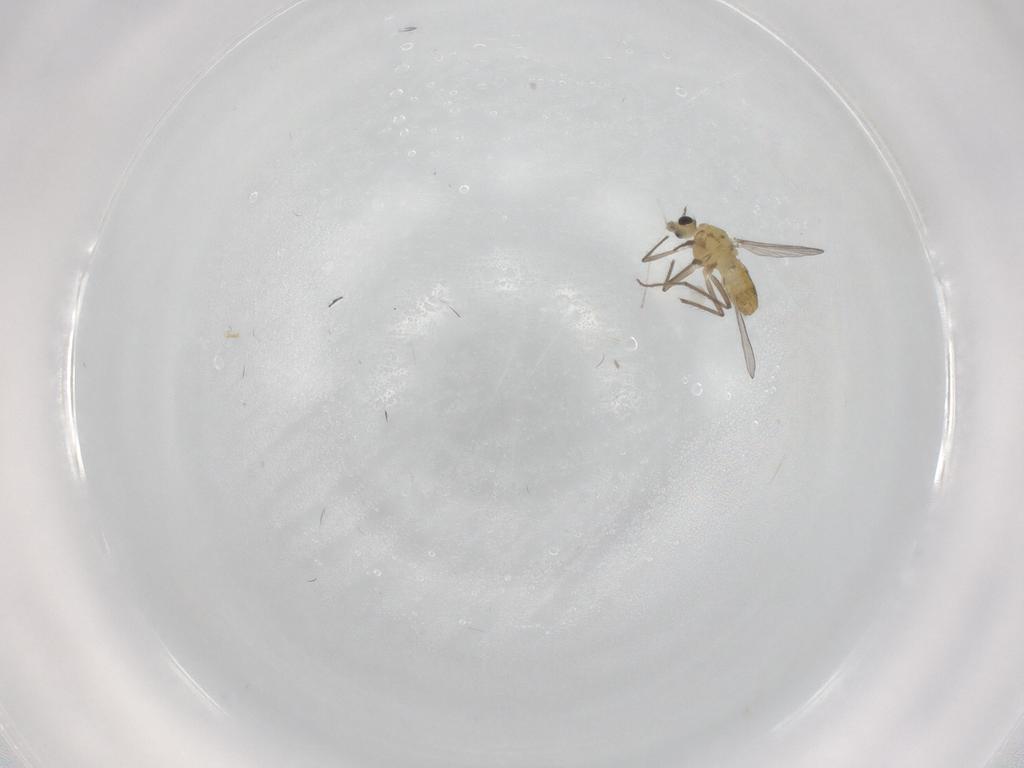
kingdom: Animalia
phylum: Arthropoda
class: Insecta
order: Diptera
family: Chironomidae
